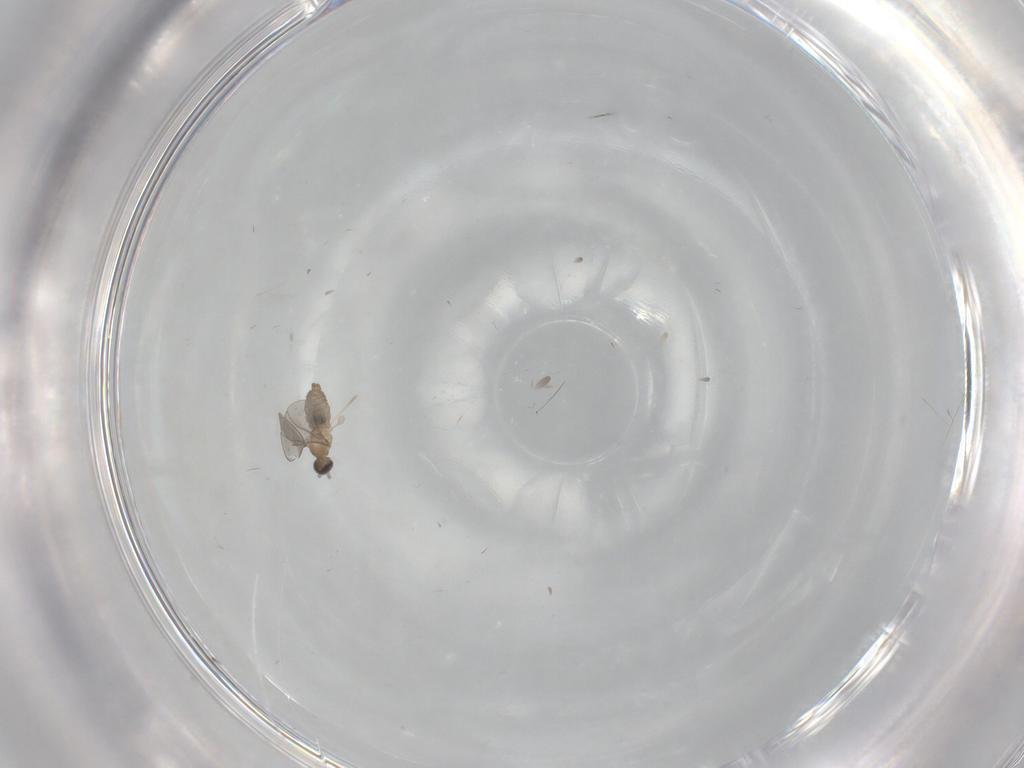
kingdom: Animalia
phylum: Arthropoda
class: Insecta
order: Diptera
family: Cecidomyiidae
